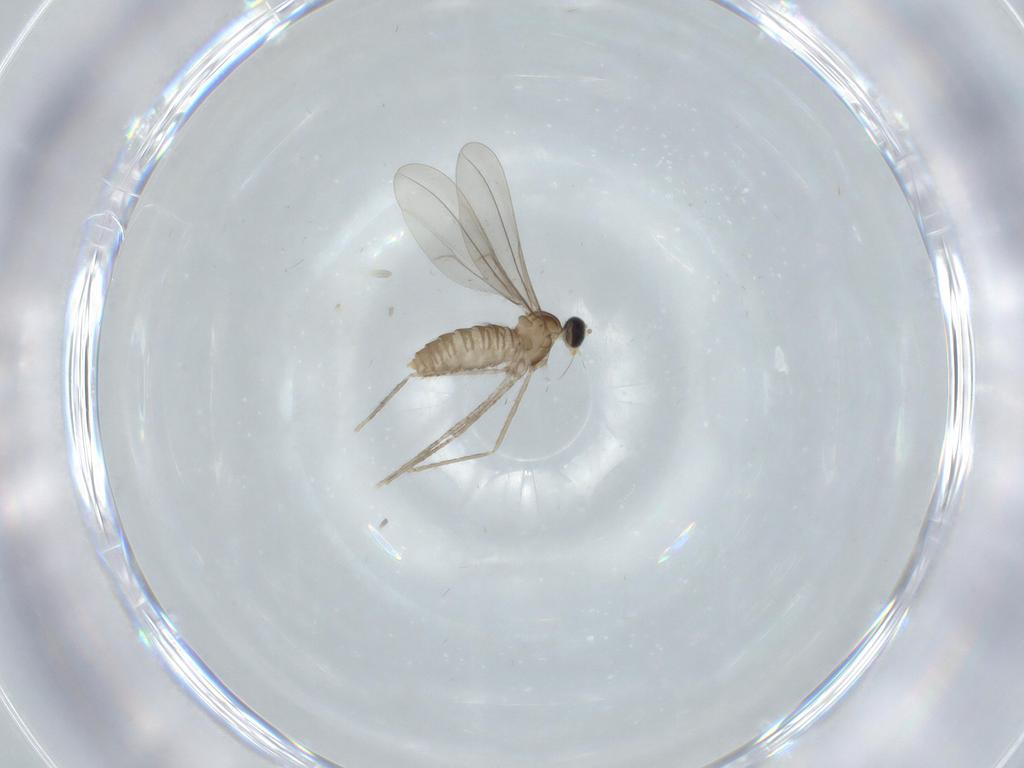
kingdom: Animalia
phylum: Arthropoda
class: Insecta
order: Diptera
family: Cecidomyiidae
